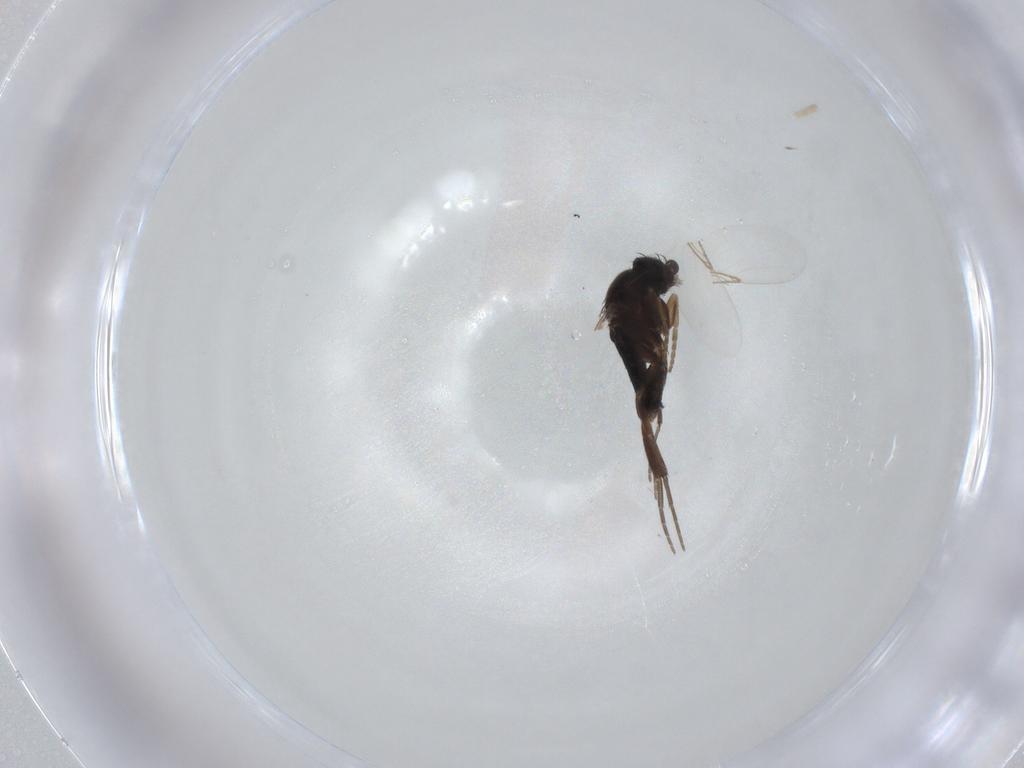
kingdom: Animalia
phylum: Arthropoda
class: Insecta
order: Diptera
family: Phoridae
